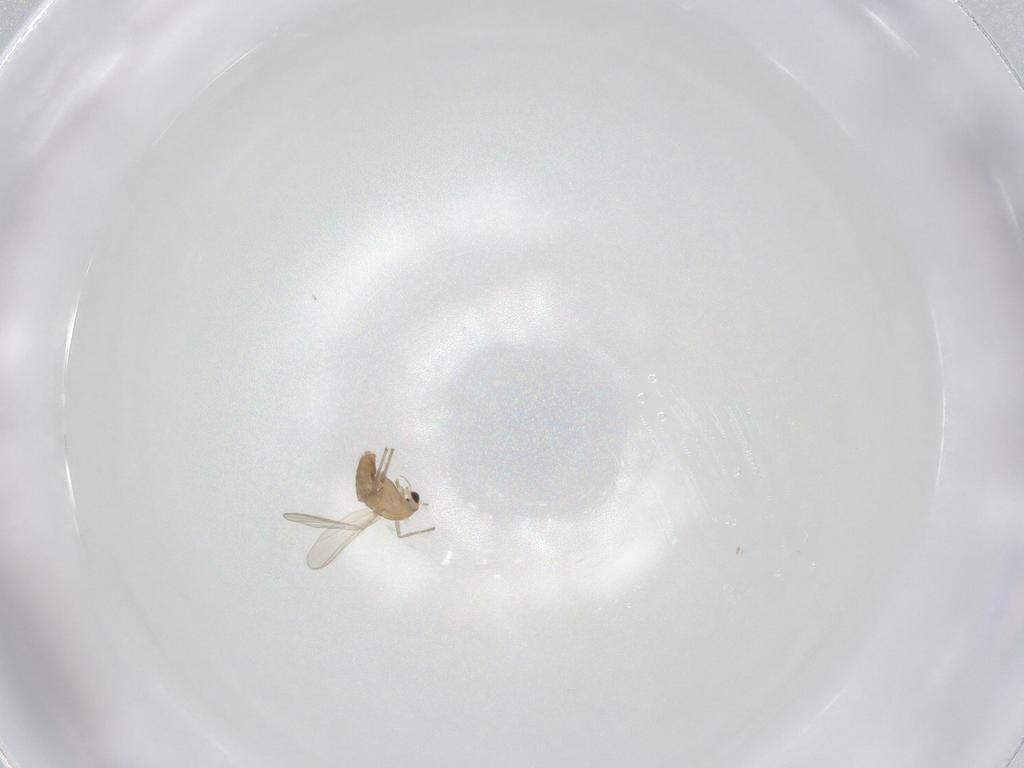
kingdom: Animalia
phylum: Arthropoda
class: Insecta
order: Diptera
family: Chironomidae
